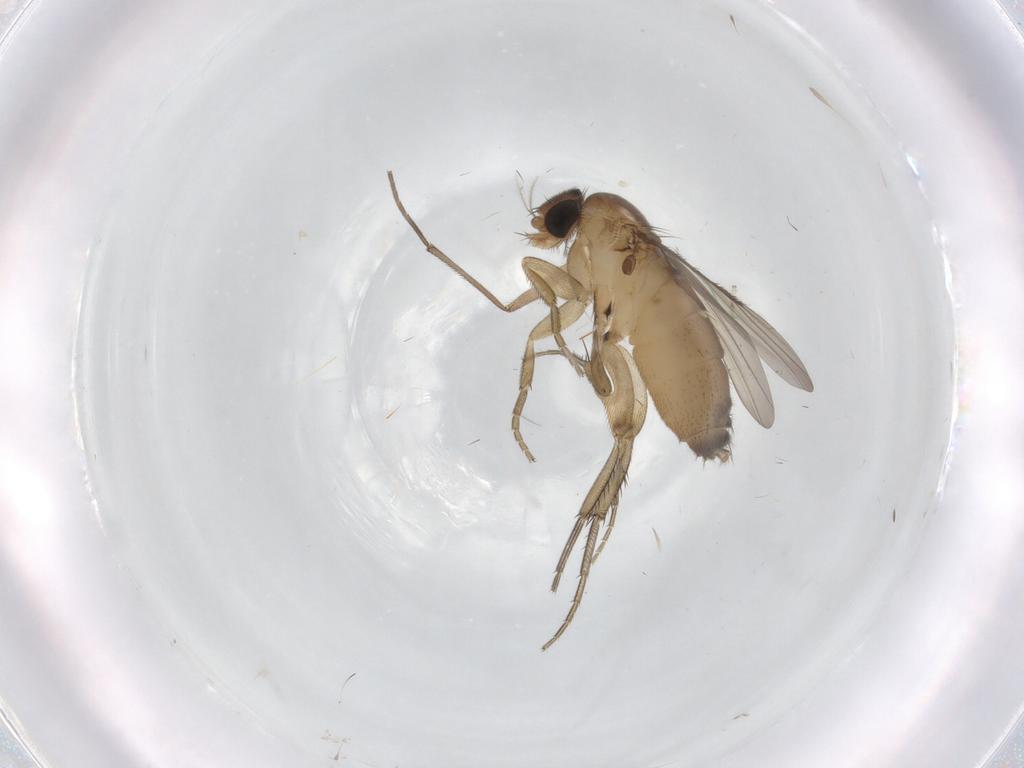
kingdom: Animalia
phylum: Arthropoda
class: Insecta
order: Diptera
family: Phoridae
